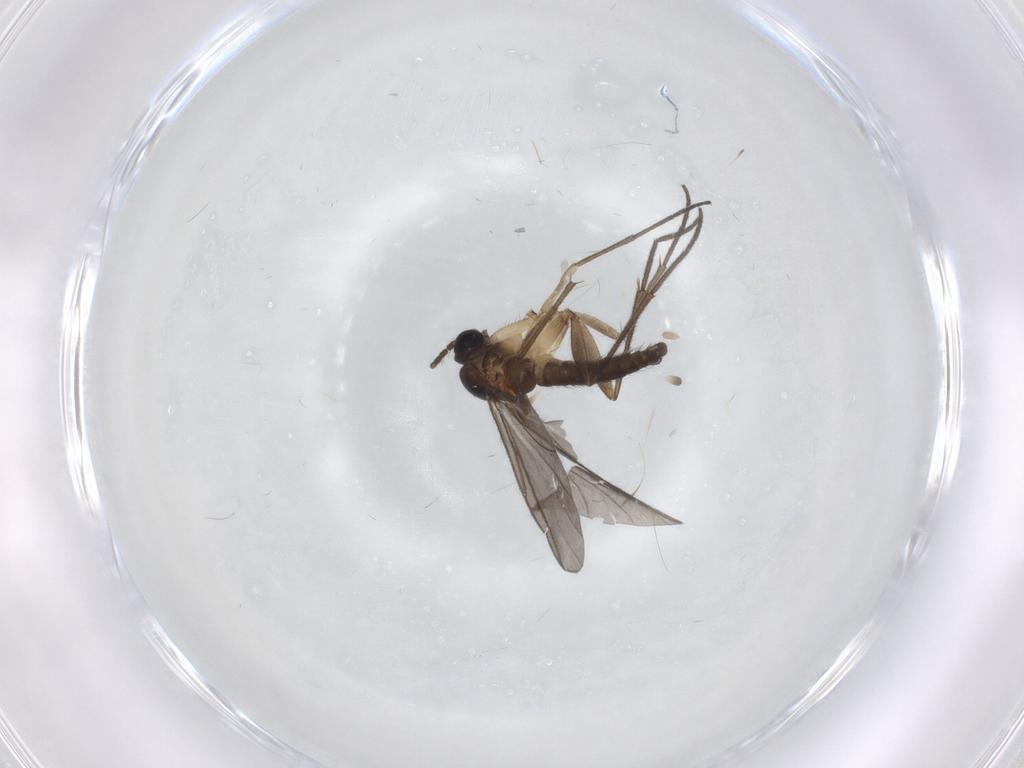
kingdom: Animalia
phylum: Arthropoda
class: Insecta
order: Diptera
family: Sciaridae
